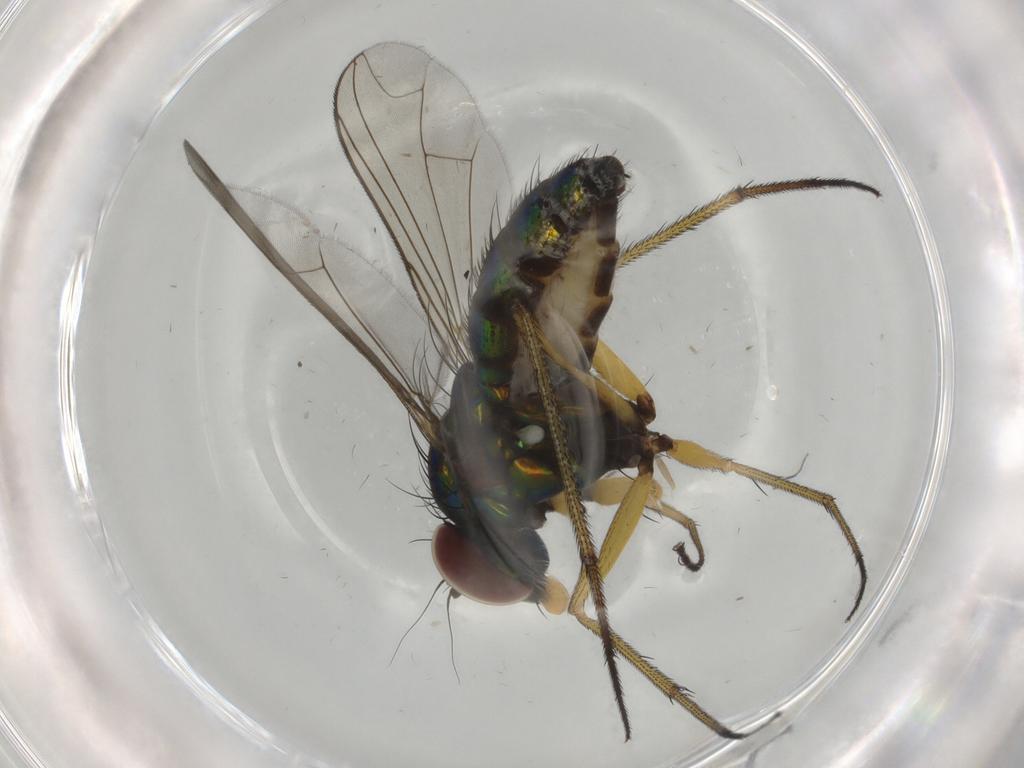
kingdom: Animalia
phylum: Arthropoda
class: Insecta
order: Diptera
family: Dolichopodidae
